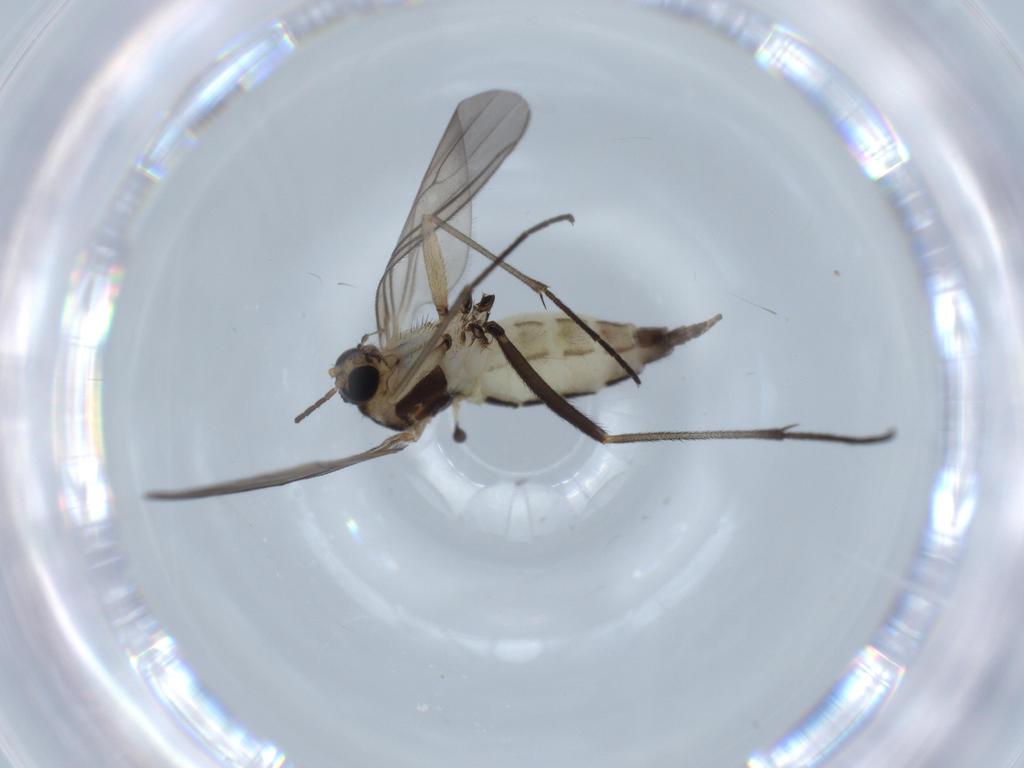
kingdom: Animalia
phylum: Arthropoda
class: Insecta
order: Diptera
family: Sciaridae
